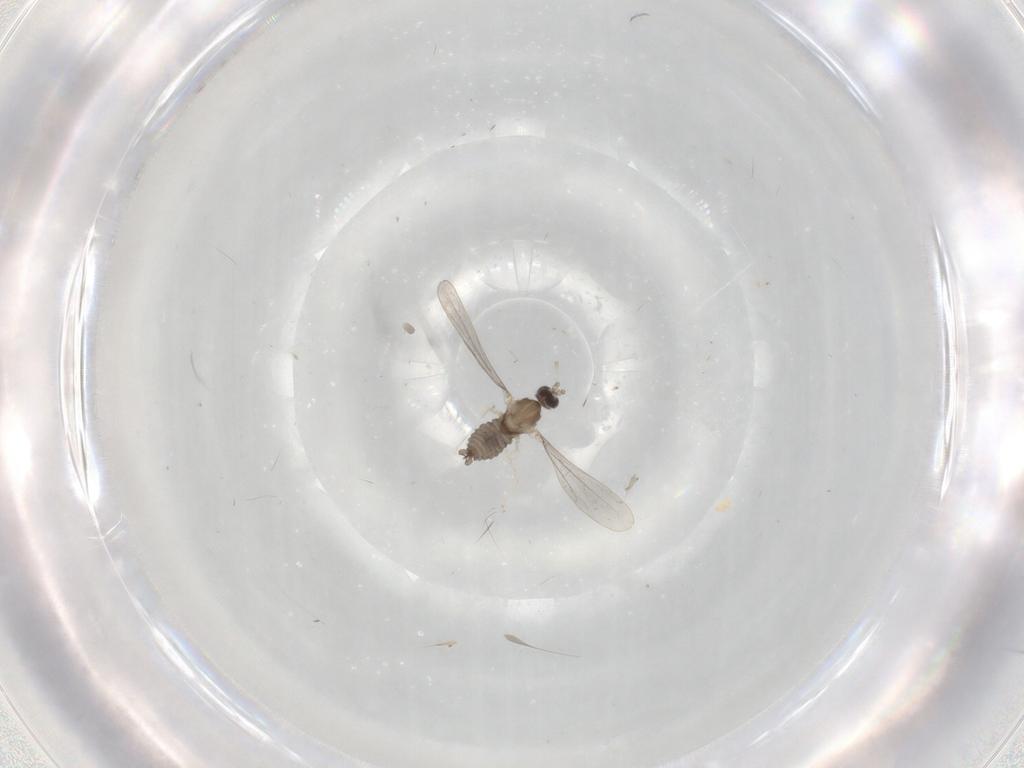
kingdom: Animalia
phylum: Arthropoda
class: Insecta
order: Diptera
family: Cecidomyiidae
